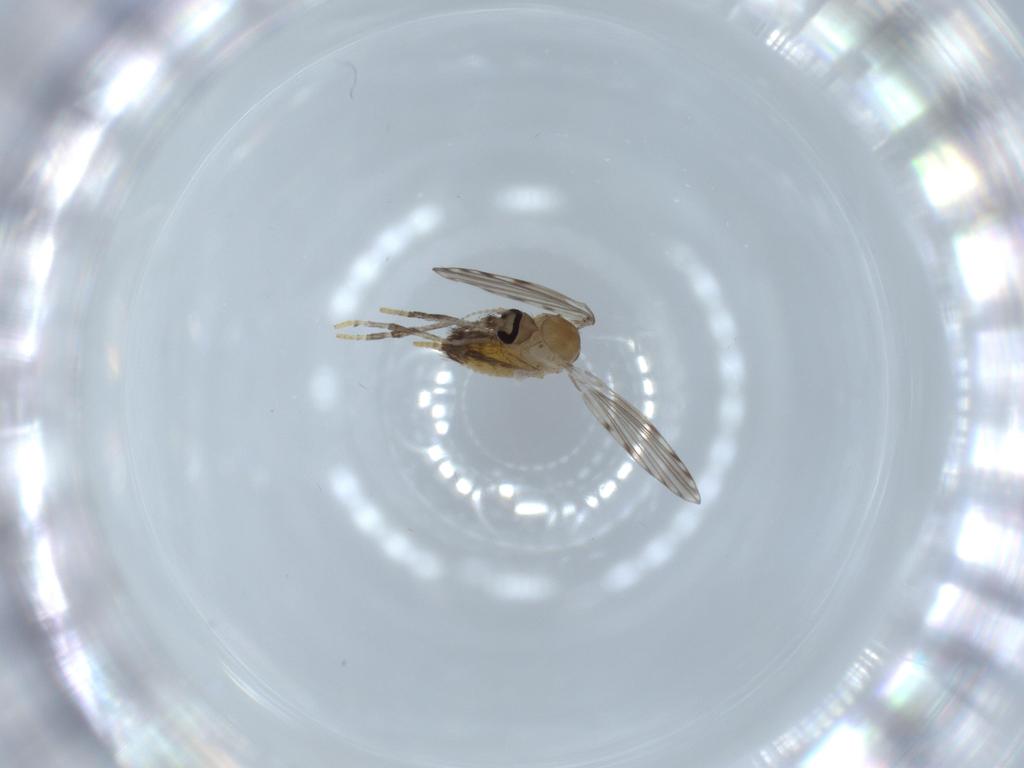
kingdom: Animalia
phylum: Arthropoda
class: Insecta
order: Diptera
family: Psychodidae
